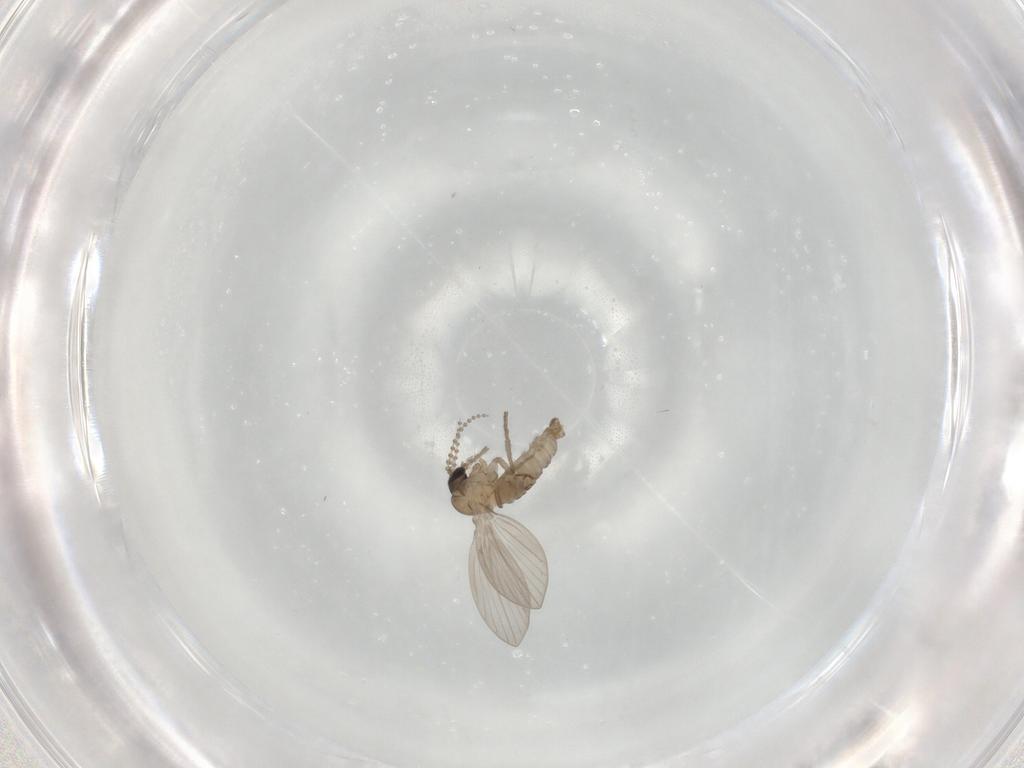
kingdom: Animalia
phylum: Arthropoda
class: Insecta
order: Diptera
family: Psychodidae
